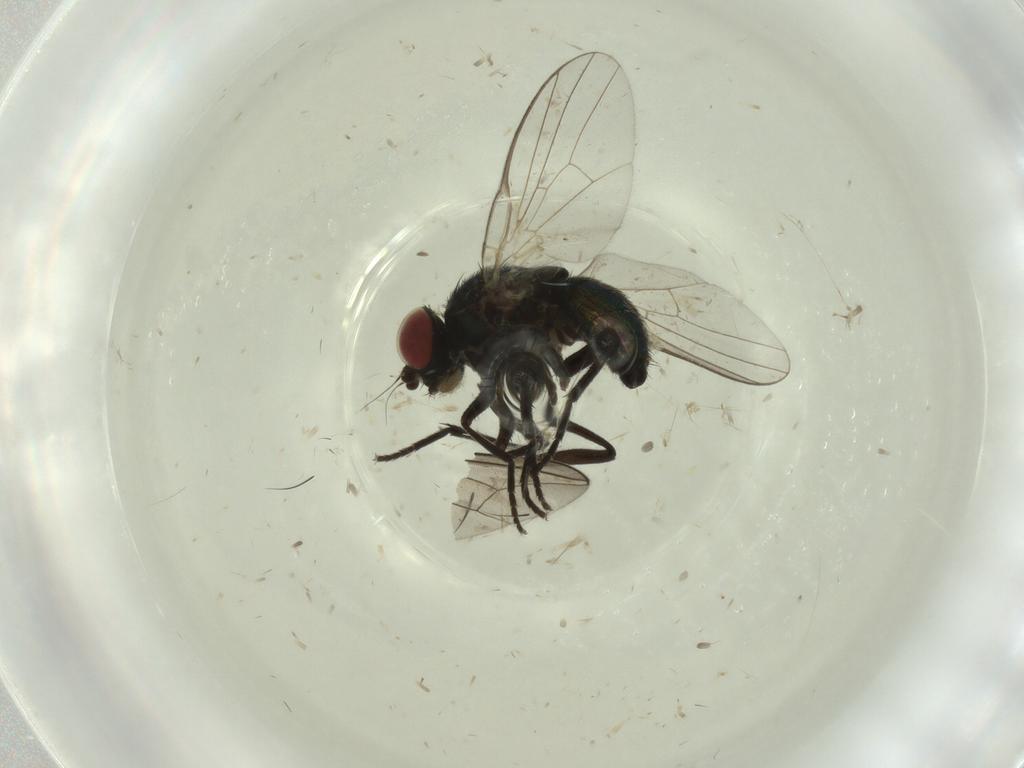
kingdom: Animalia
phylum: Arthropoda
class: Insecta
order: Diptera
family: Pipunculidae
